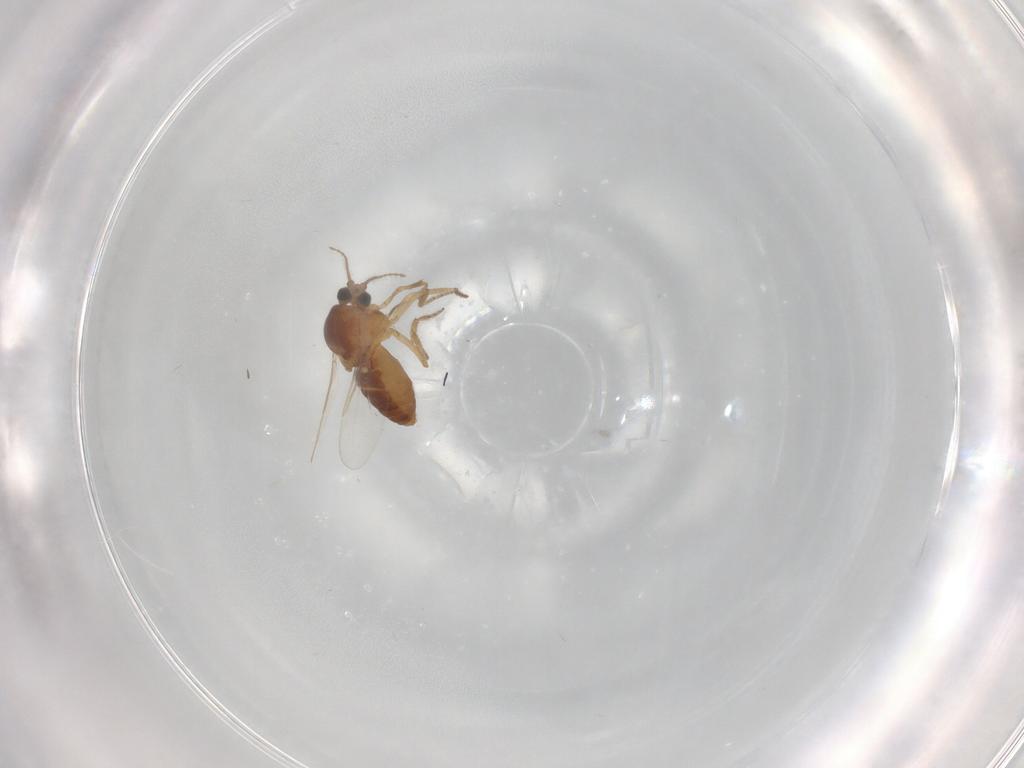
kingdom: Animalia
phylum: Arthropoda
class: Insecta
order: Diptera
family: Ceratopogonidae
